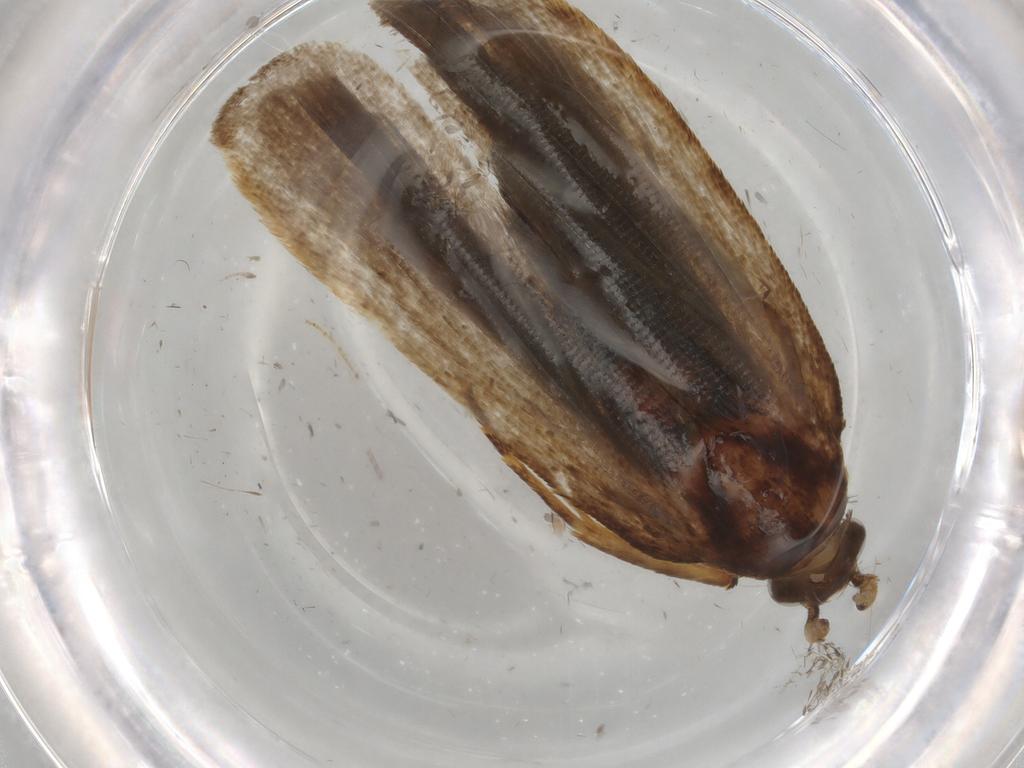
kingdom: Animalia
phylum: Arthropoda
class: Insecta
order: Lepidoptera
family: Autostichidae
